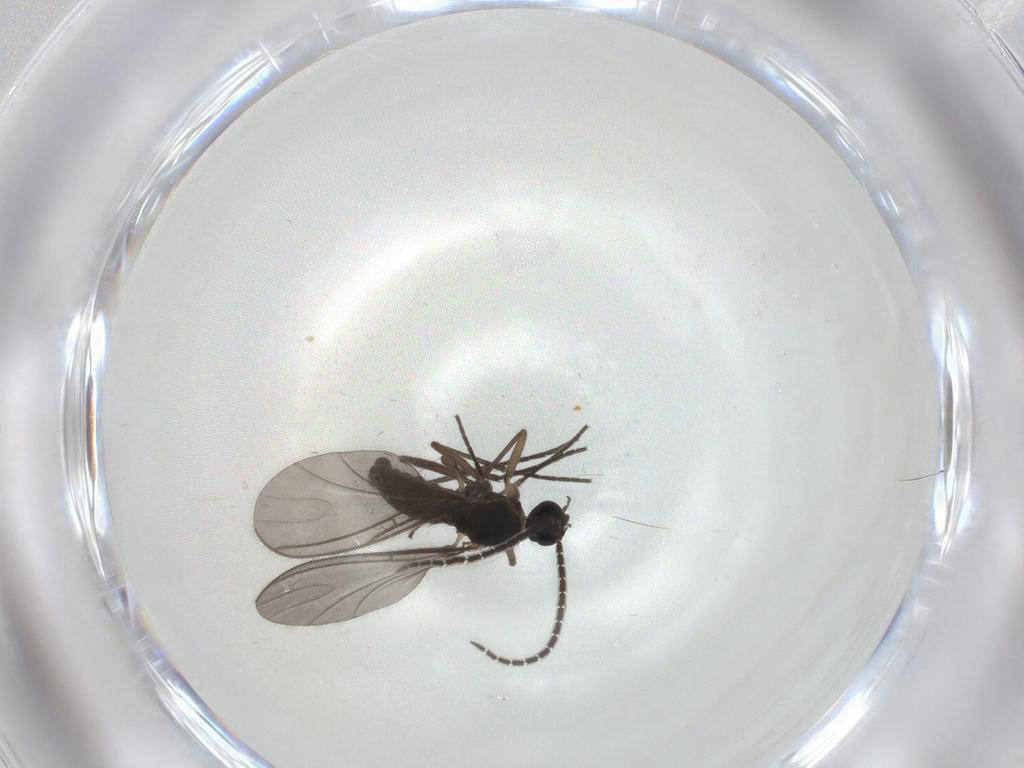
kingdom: Animalia
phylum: Arthropoda
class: Insecta
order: Diptera
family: Sciaridae
